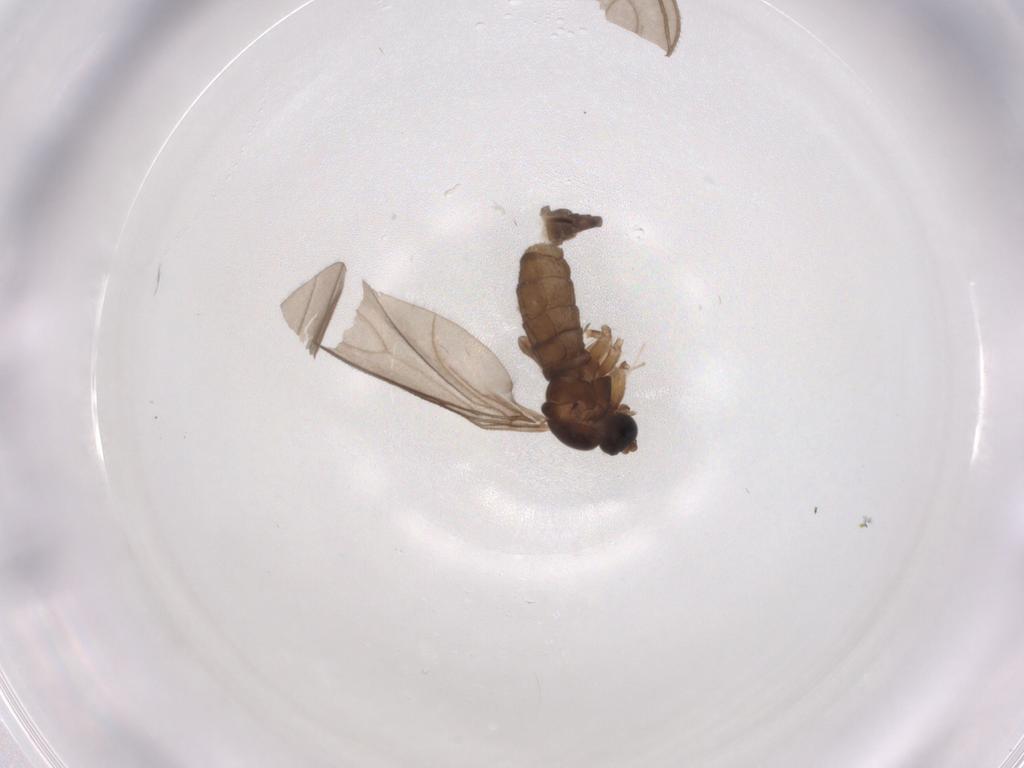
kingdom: Animalia
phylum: Arthropoda
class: Insecta
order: Diptera
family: Sciaridae
